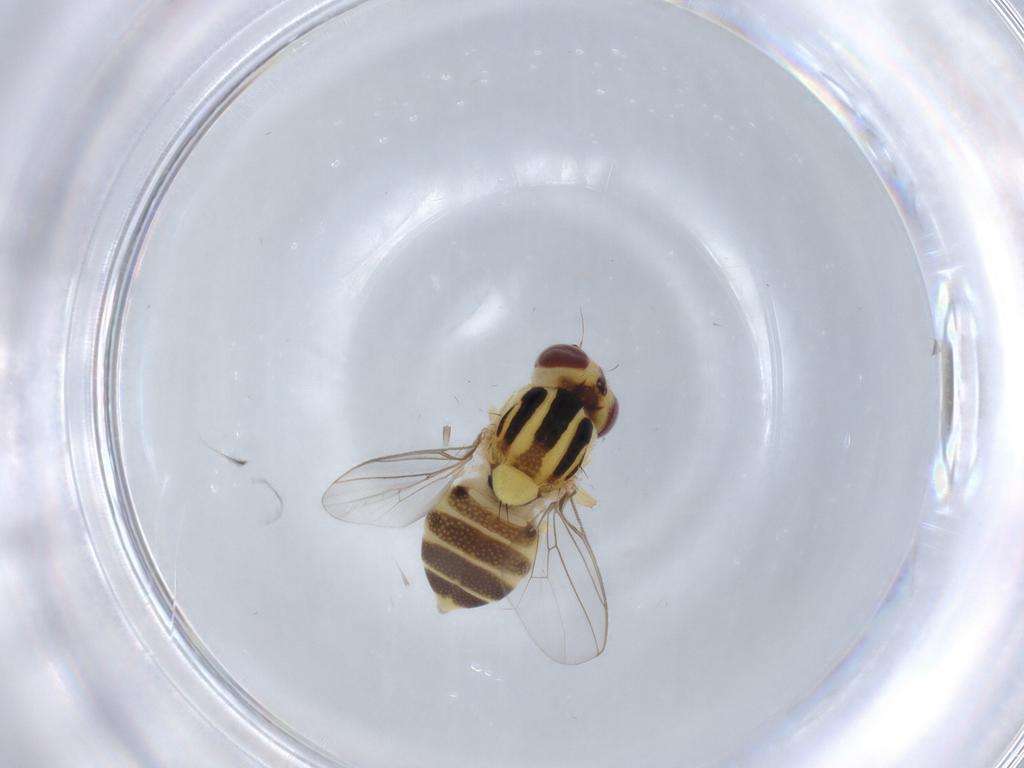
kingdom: Animalia
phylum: Arthropoda
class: Insecta
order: Diptera
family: Chloropidae
